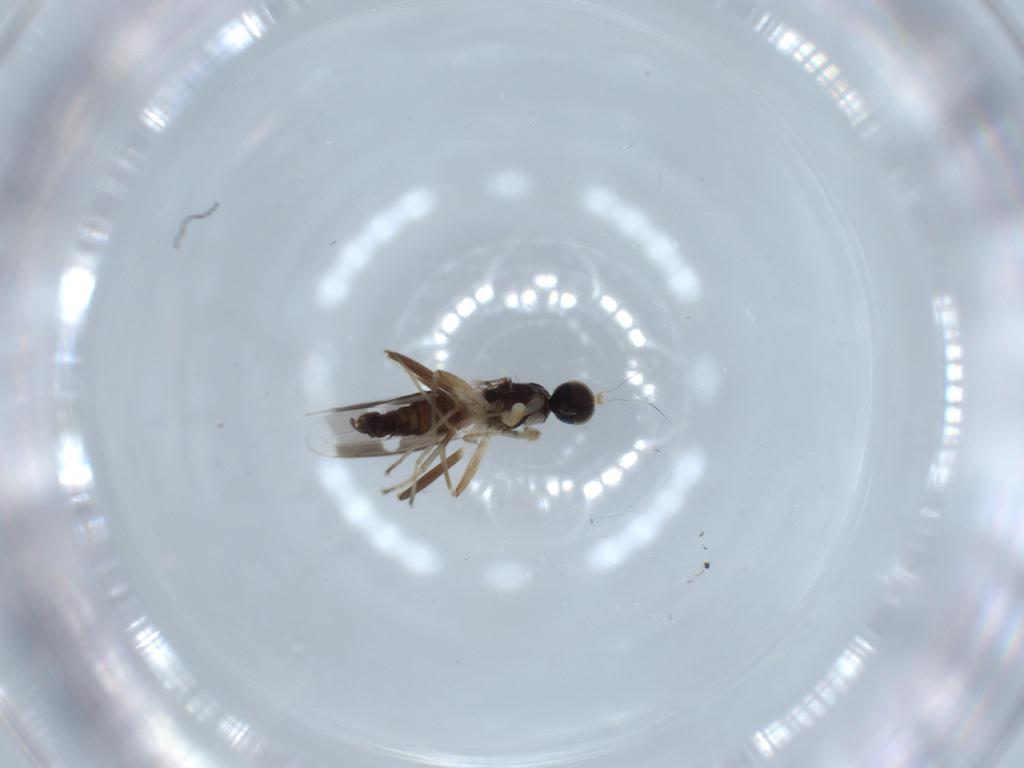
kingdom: Animalia
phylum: Arthropoda
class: Insecta
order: Diptera
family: Hybotidae
